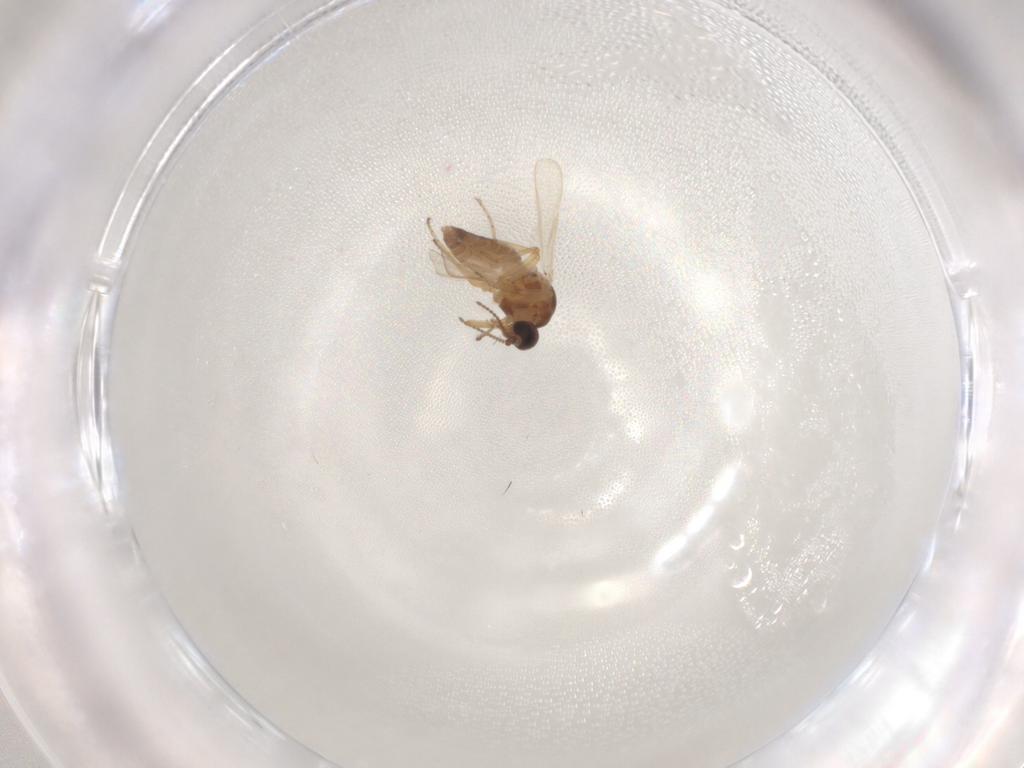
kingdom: Animalia
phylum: Arthropoda
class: Insecta
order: Diptera
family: Ceratopogonidae
